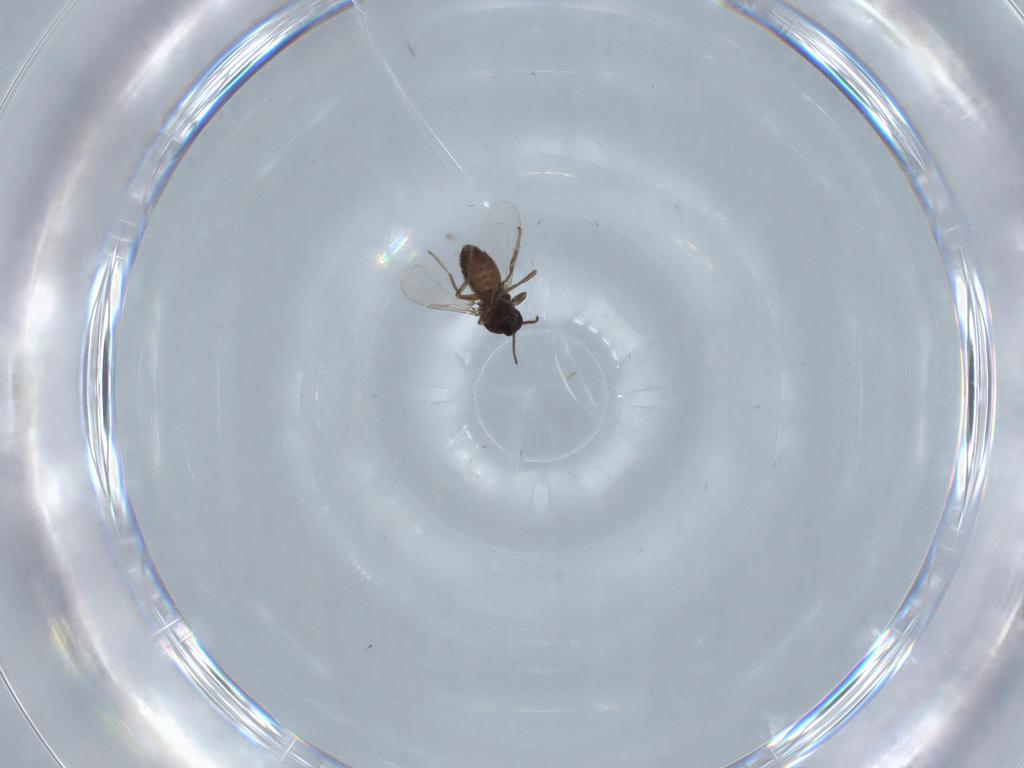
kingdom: Animalia
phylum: Arthropoda
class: Insecta
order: Diptera
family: Ceratopogonidae
